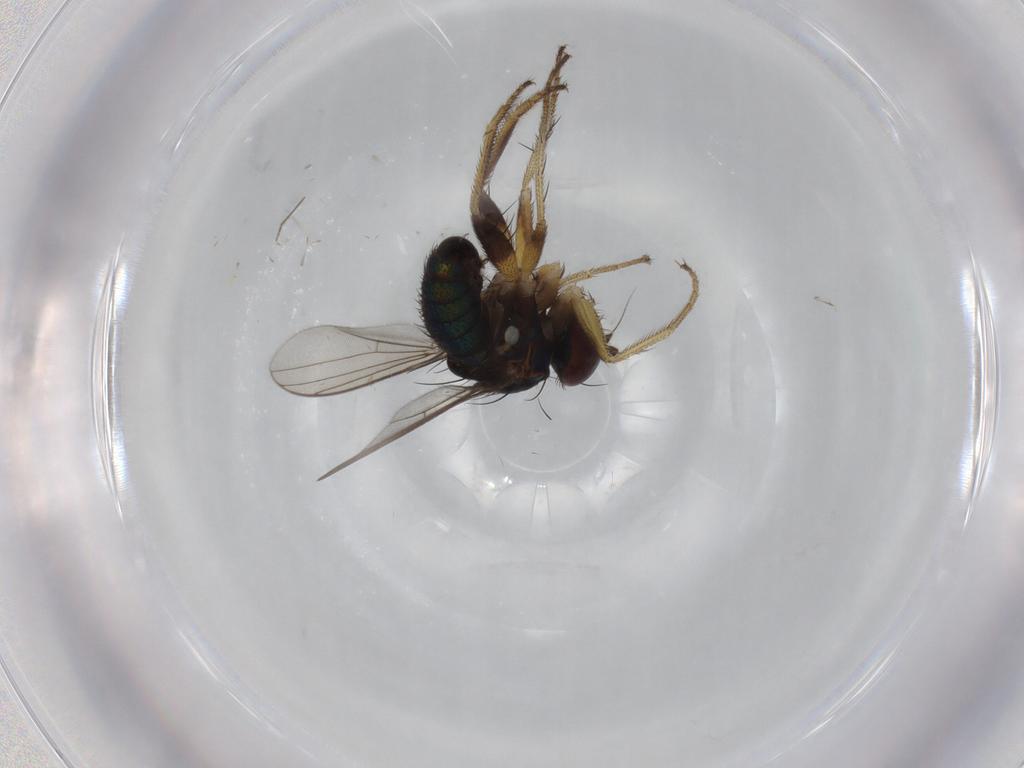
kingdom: Animalia
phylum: Arthropoda
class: Insecta
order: Diptera
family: Dolichopodidae
